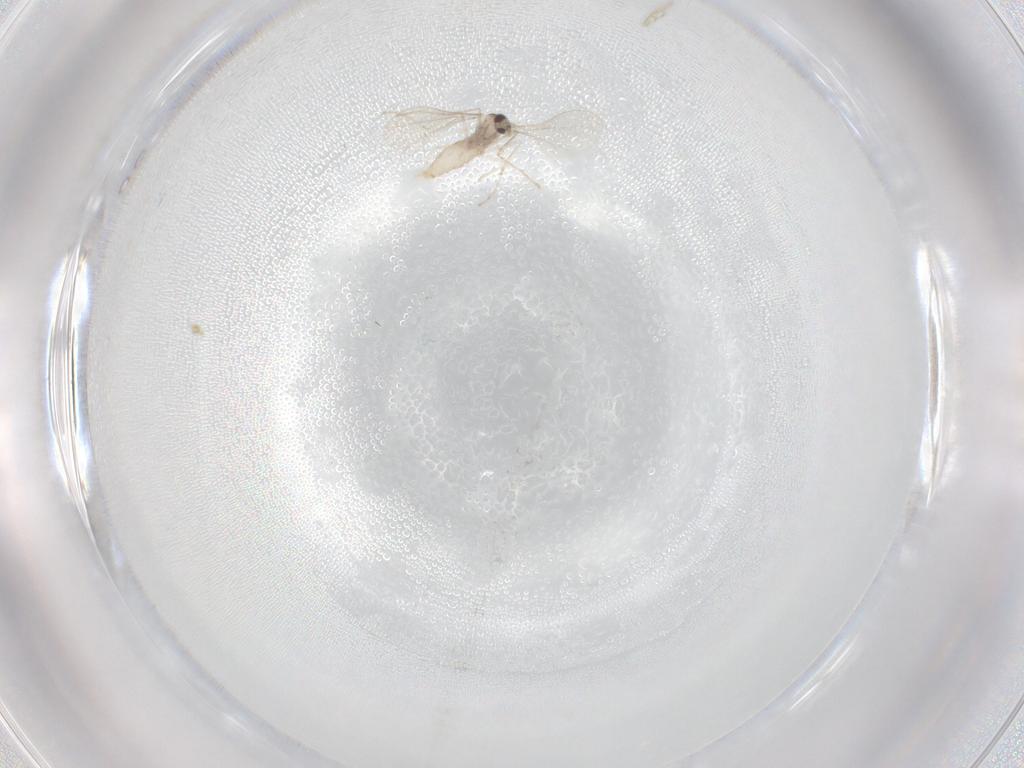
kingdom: Animalia
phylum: Arthropoda
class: Insecta
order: Diptera
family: Cecidomyiidae
